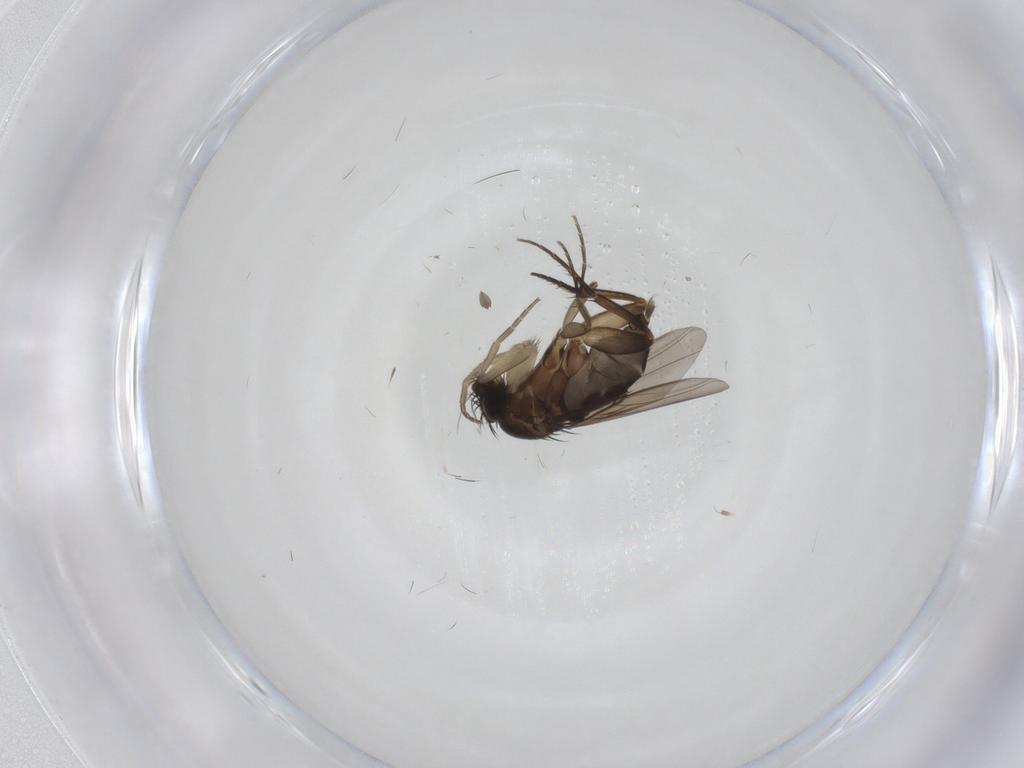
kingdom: Animalia
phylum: Arthropoda
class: Insecta
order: Diptera
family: Phoridae
